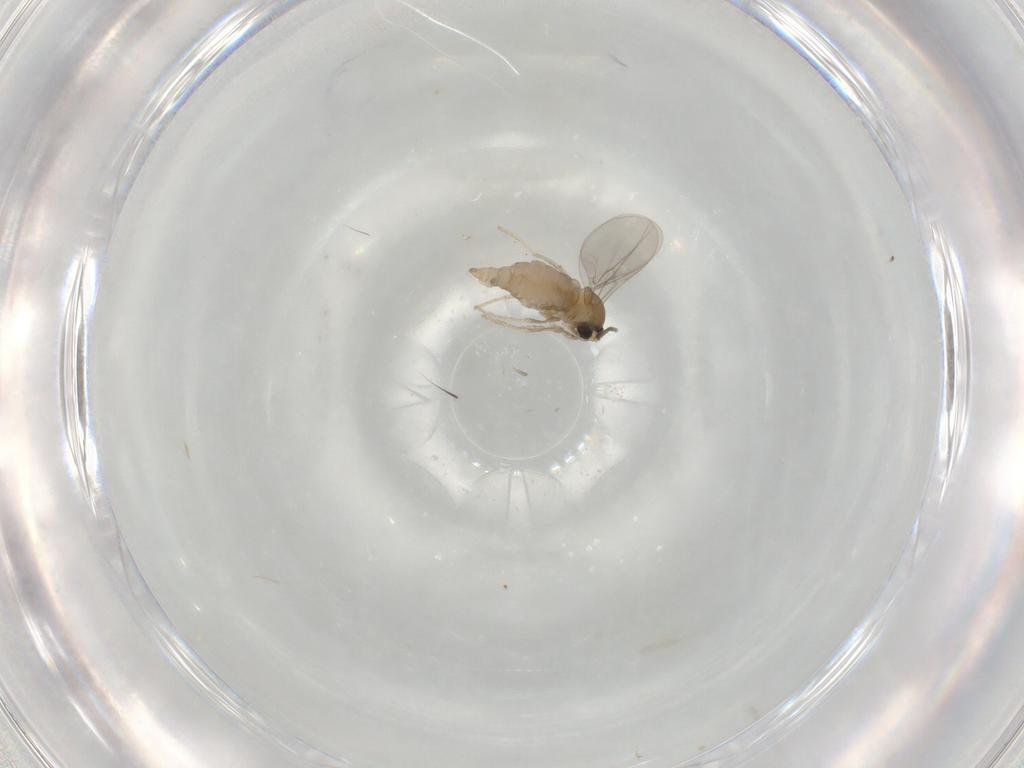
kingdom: Animalia
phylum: Arthropoda
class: Insecta
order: Diptera
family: Cecidomyiidae
